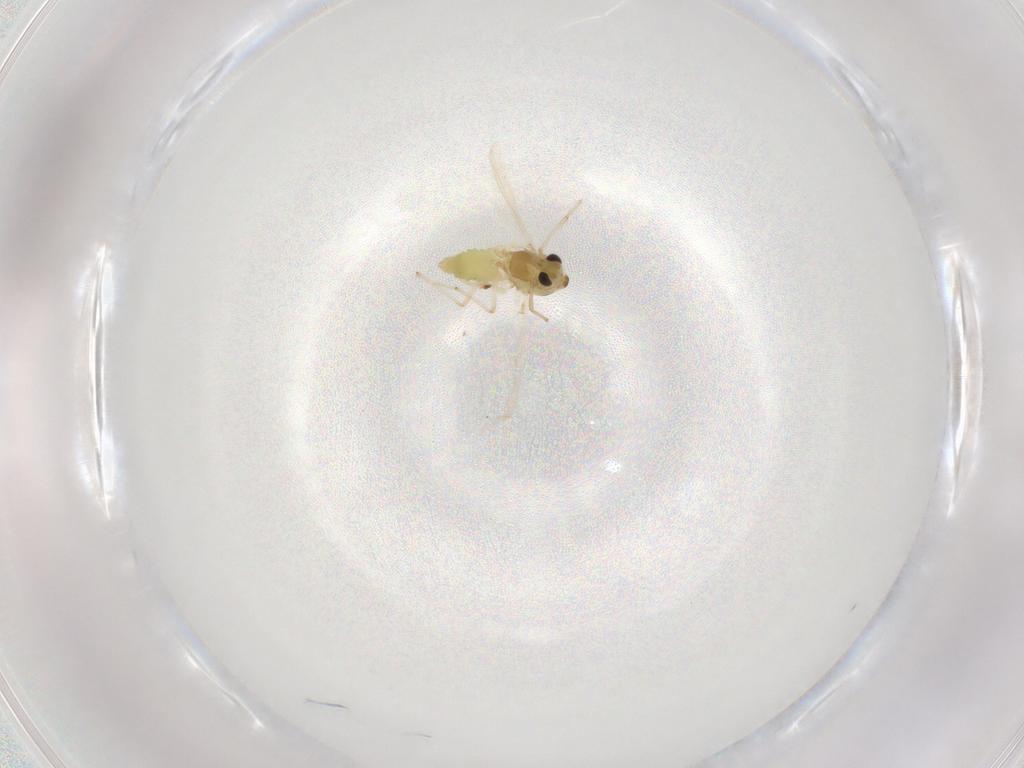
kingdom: Animalia
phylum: Arthropoda
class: Insecta
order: Diptera
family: Chironomidae
